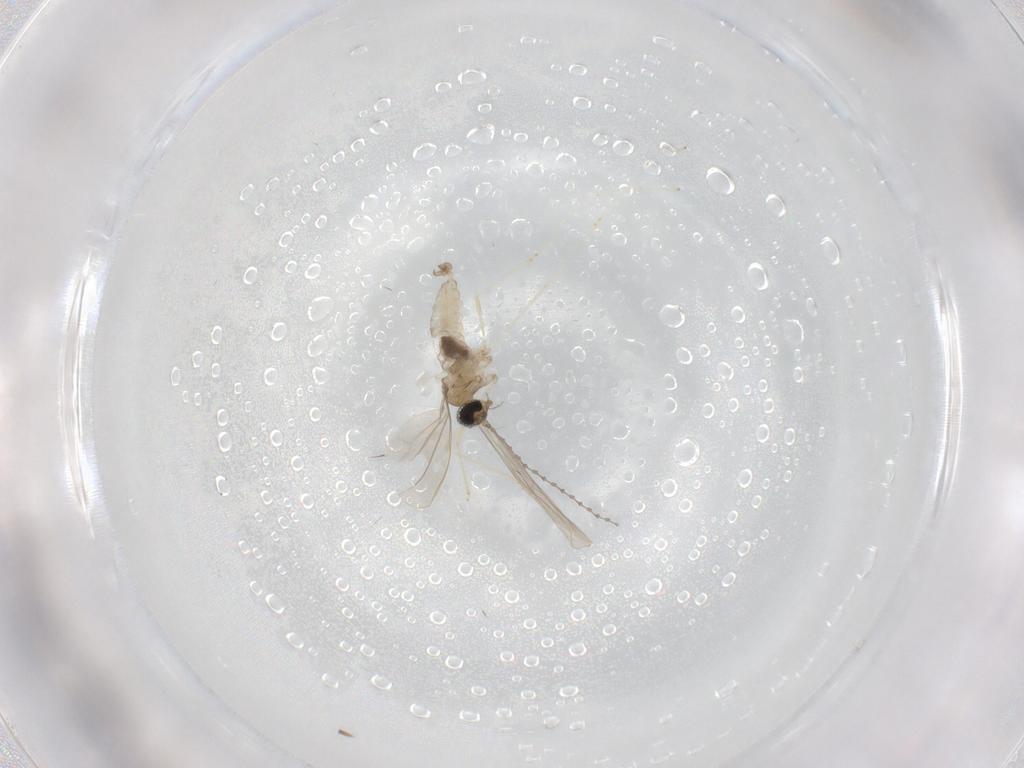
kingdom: Animalia
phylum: Arthropoda
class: Insecta
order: Diptera
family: Cecidomyiidae
